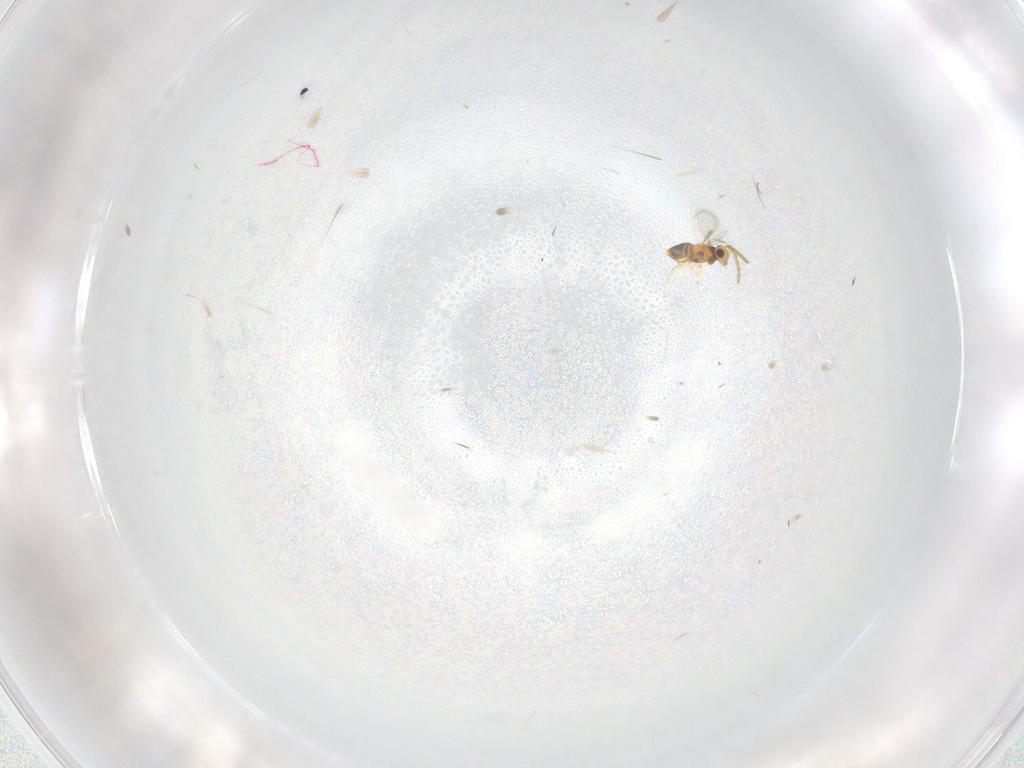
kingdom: Animalia
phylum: Arthropoda
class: Insecta
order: Hymenoptera
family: Aphelinidae
